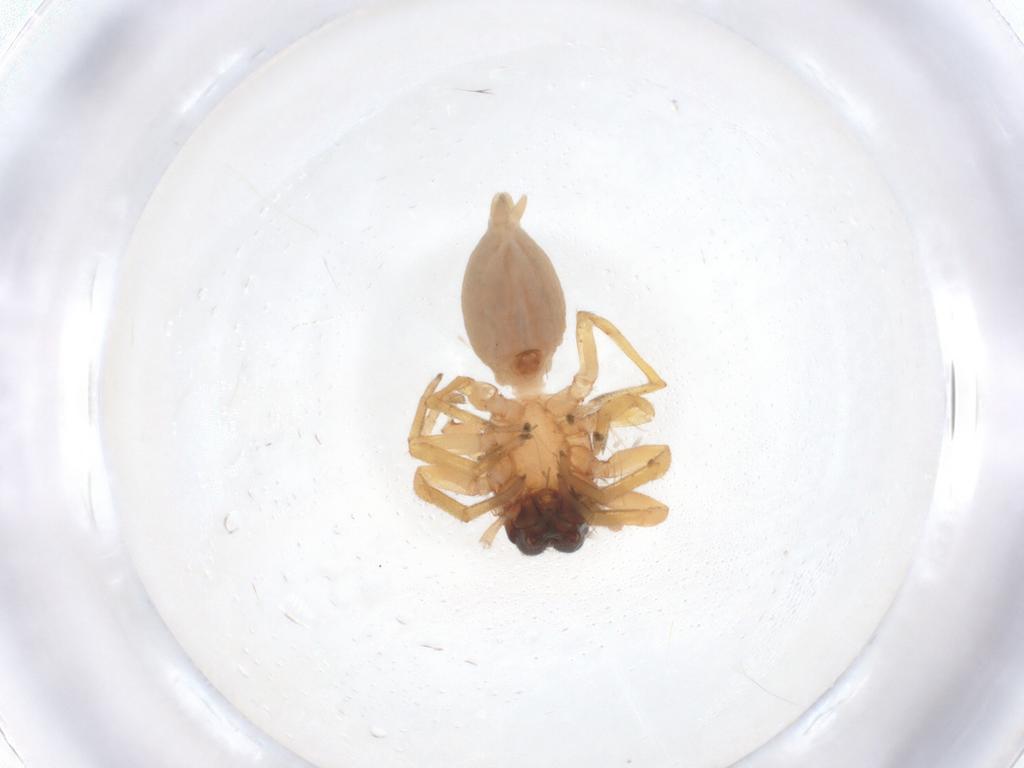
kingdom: Animalia
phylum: Arthropoda
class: Arachnida
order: Araneae
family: Clubionidae
